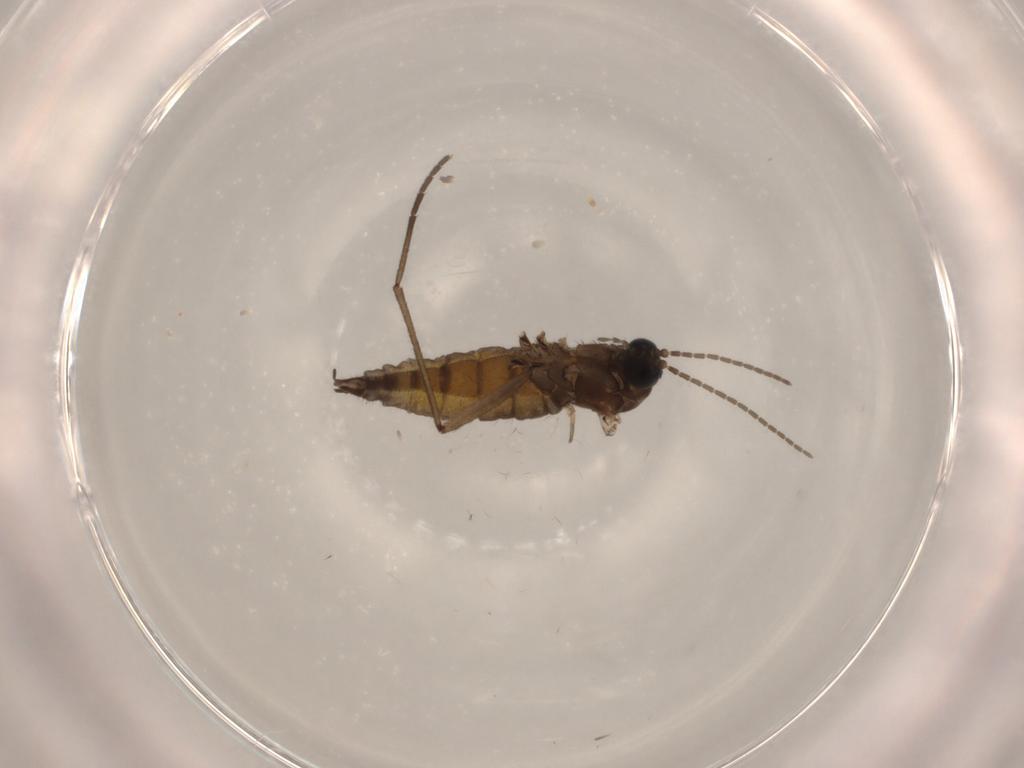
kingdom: Animalia
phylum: Arthropoda
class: Insecta
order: Diptera
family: Sciaridae
